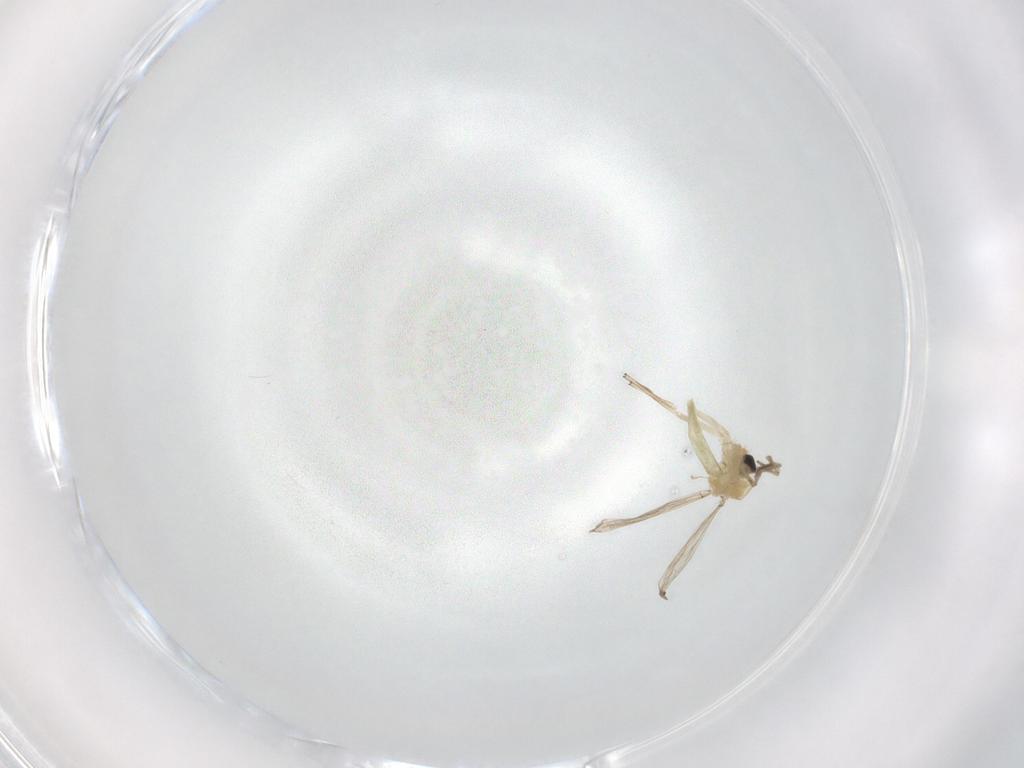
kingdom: Animalia
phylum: Arthropoda
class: Insecta
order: Diptera
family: Chironomidae
